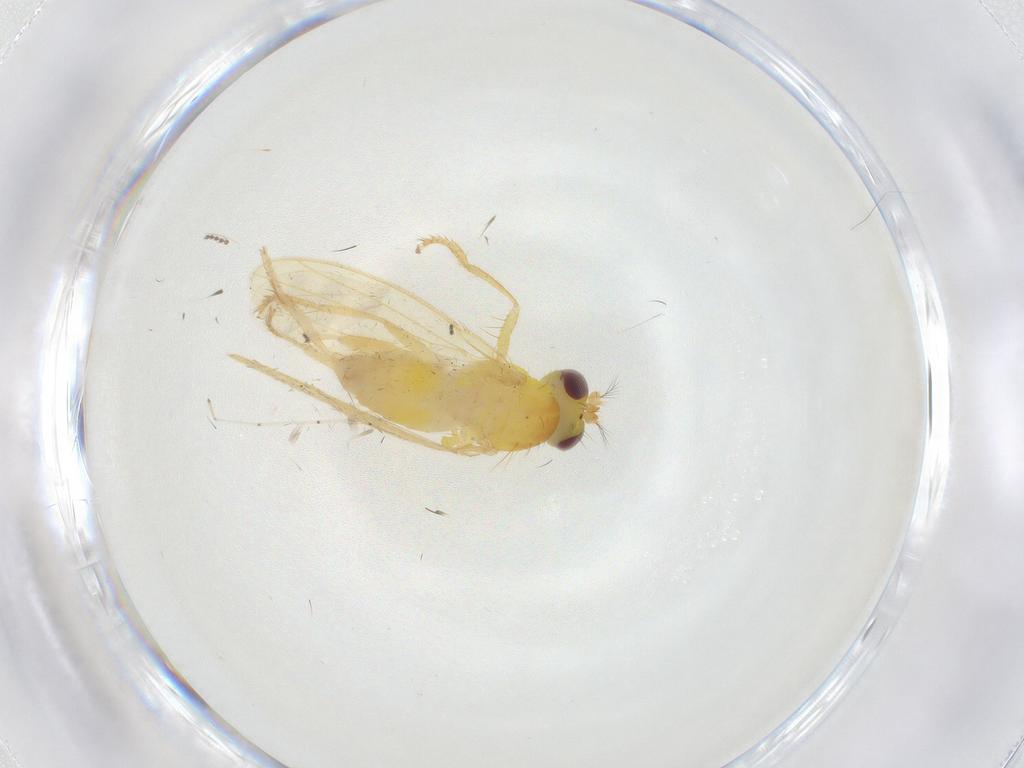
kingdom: Animalia
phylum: Arthropoda
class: Insecta
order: Diptera
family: Periscelididae
